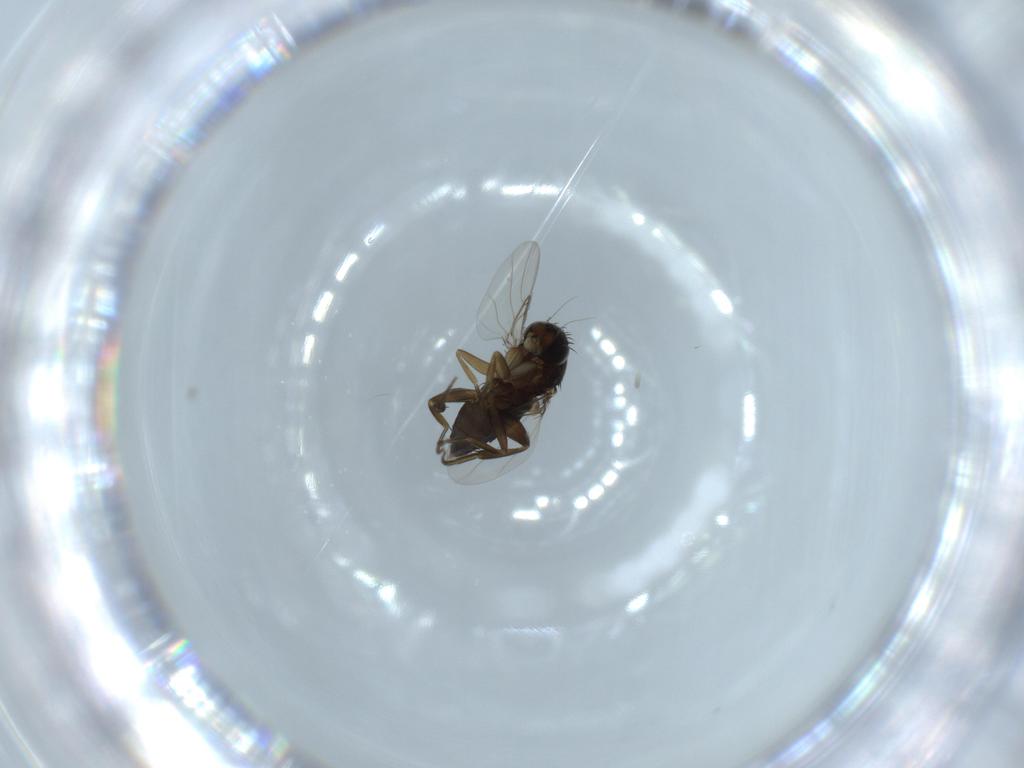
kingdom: Animalia
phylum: Arthropoda
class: Insecta
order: Diptera
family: Phoridae
